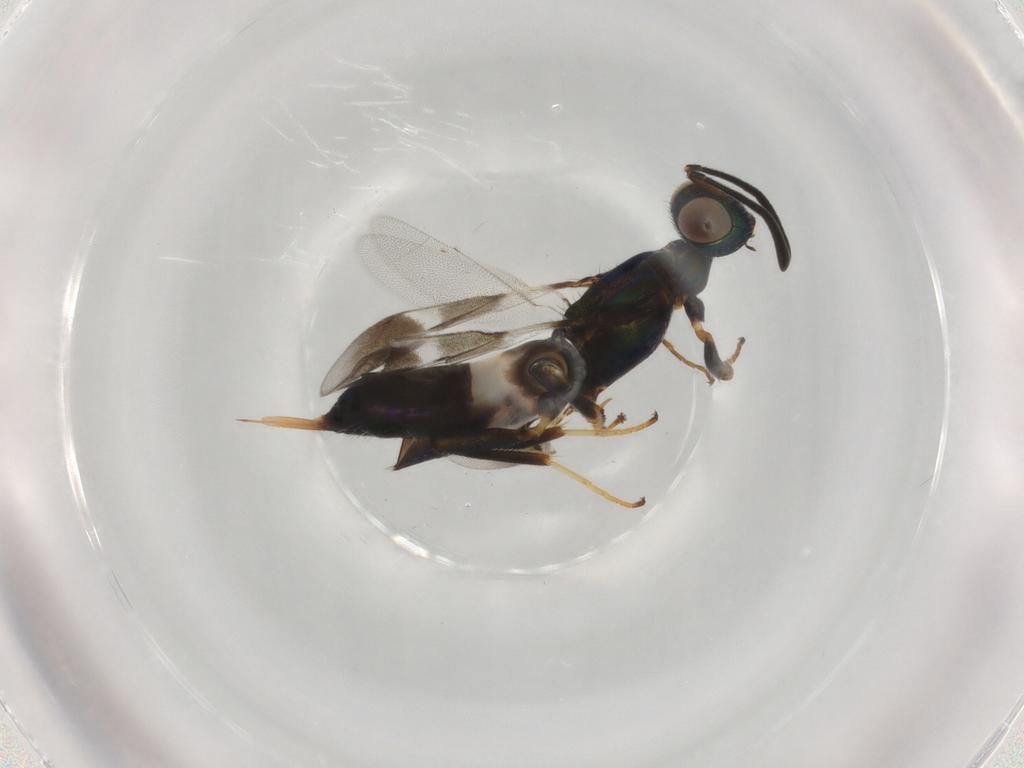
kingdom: Animalia
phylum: Arthropoda
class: Insecta
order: Hymenoptera
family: Eupelmidae
